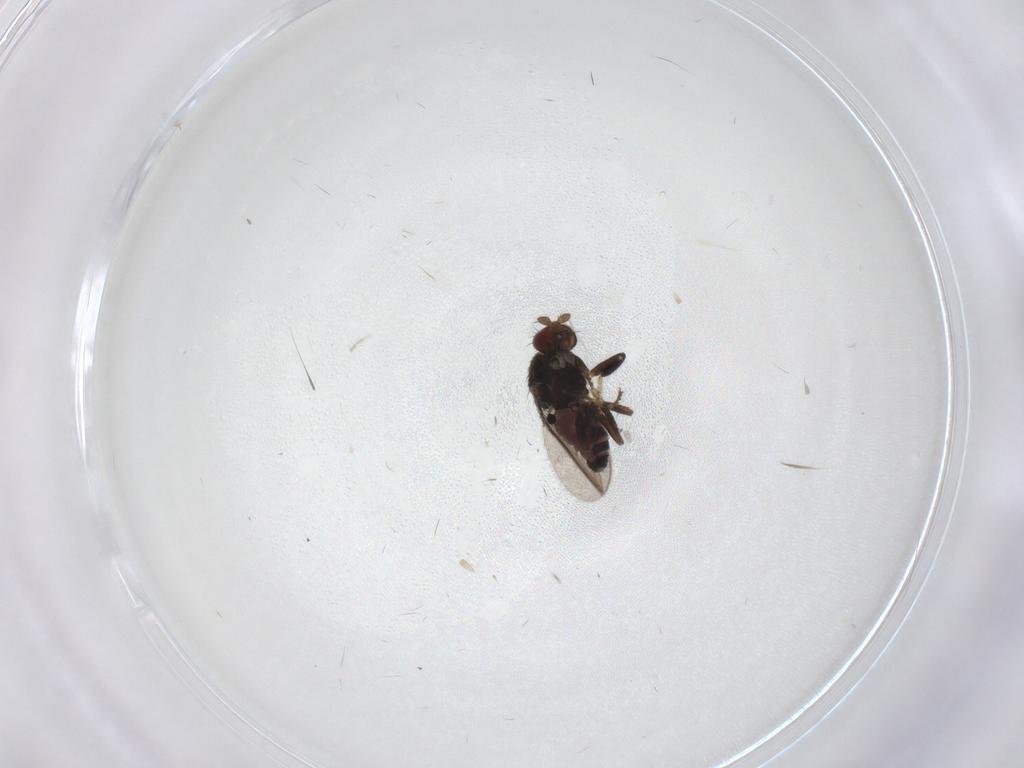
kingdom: Animalia
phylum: Arthropoda
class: Insecta
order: Diptera
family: Sphaeroceridae
